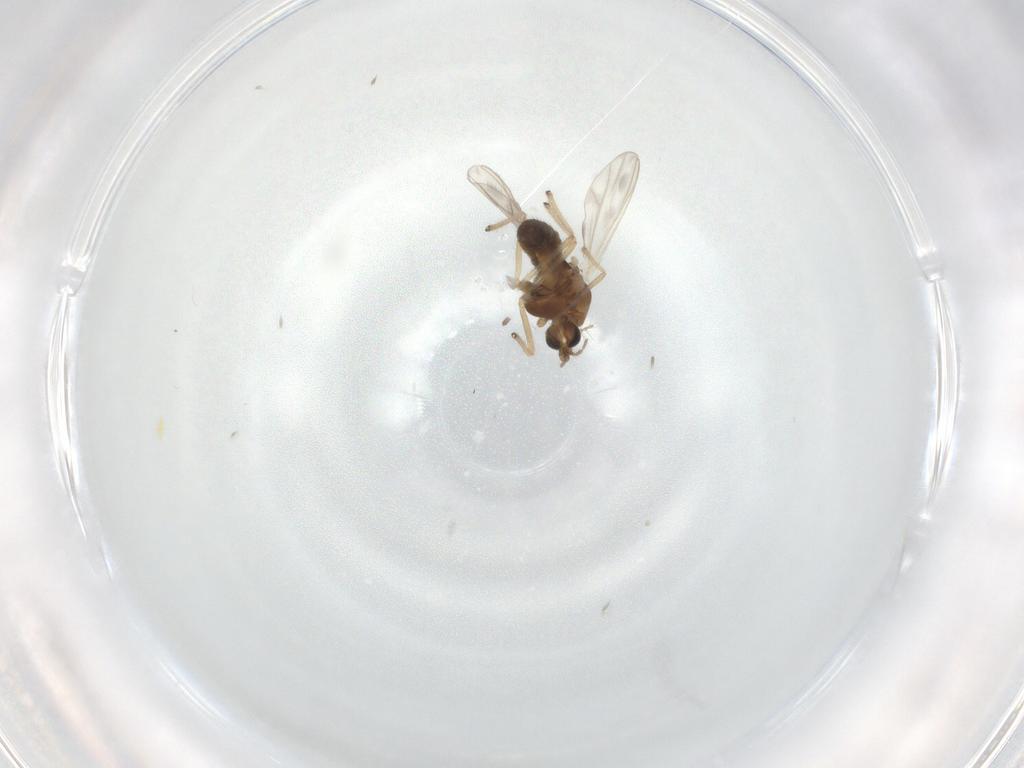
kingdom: Animalia
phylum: Arthropoda
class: Insecta
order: Diptera
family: Chironomidae
